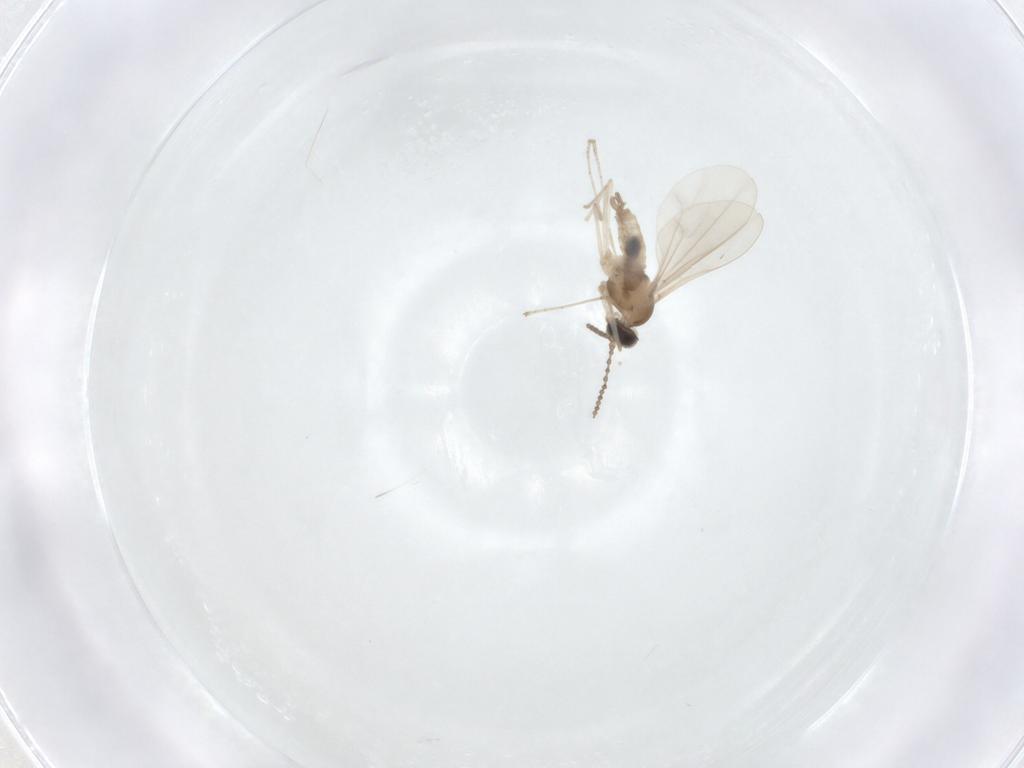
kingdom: Animalia
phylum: Arthropoda
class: Insecta
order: Diptera
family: Cecidomyiidae
